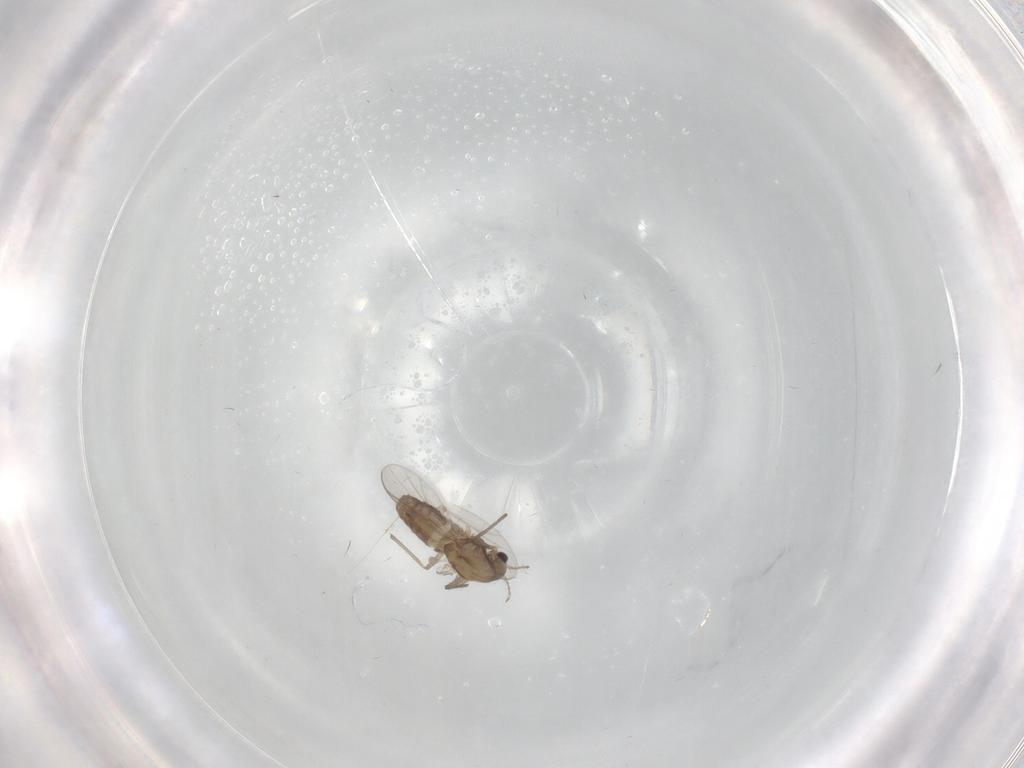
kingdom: Animalia
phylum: Arthropoda
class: Insecta
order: Diptera
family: Chironomidae
